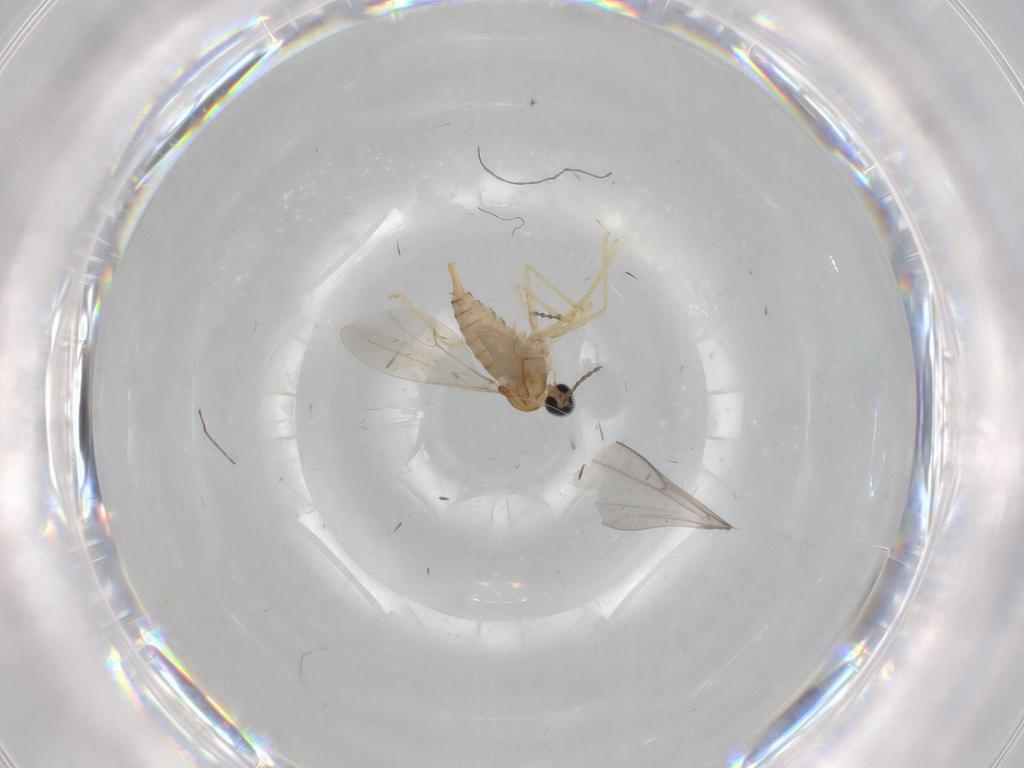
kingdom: Animalia
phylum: Arthropoda
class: Insecta
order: Diptera
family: Cecidomyiidae
